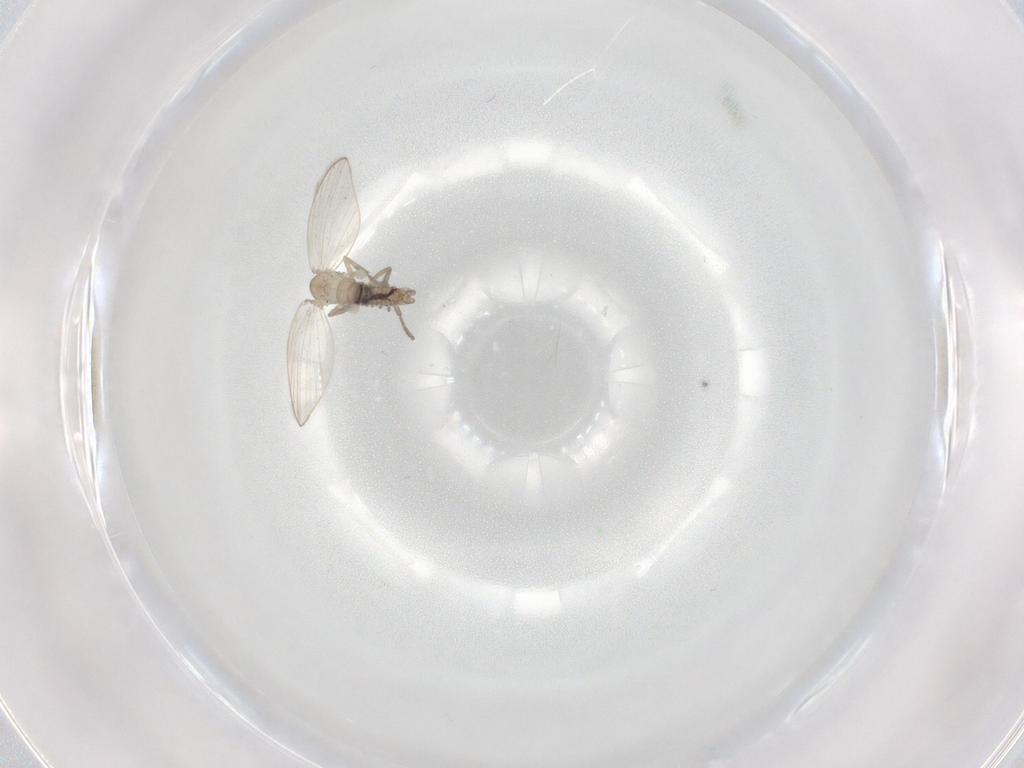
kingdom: Animalia
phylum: Arthropoda
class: Insecta
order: Diptera
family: Psychodidae
